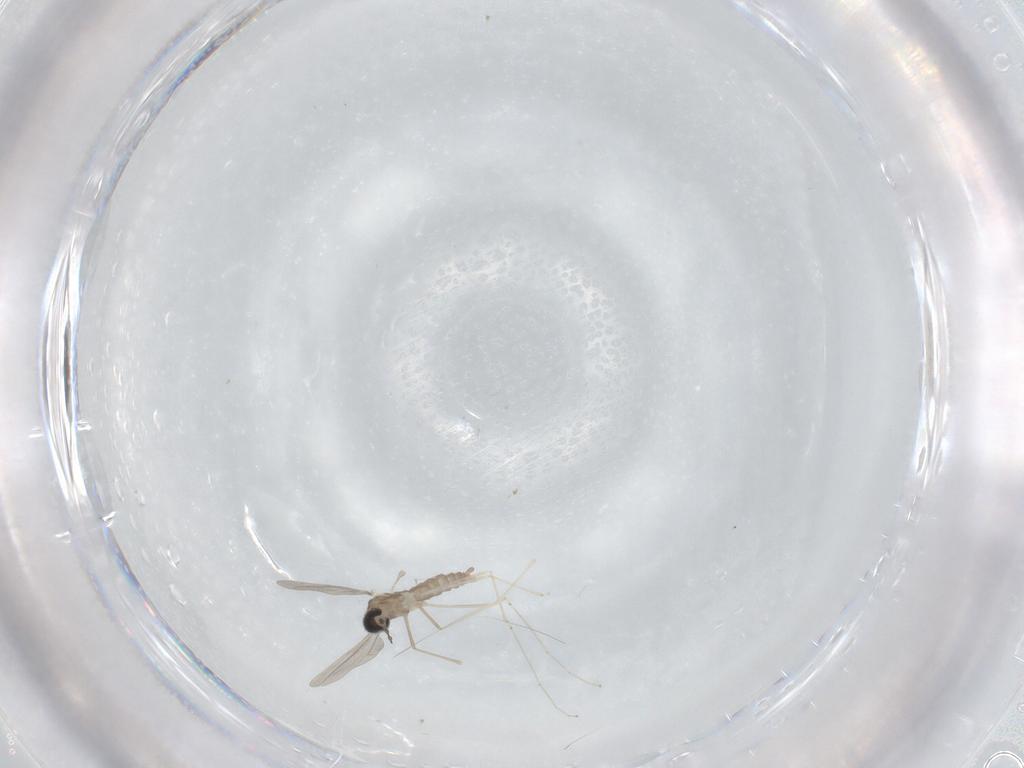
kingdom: Animalia
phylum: Arthropoda
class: Insecta
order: Diptera
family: Cecidomyiidae
